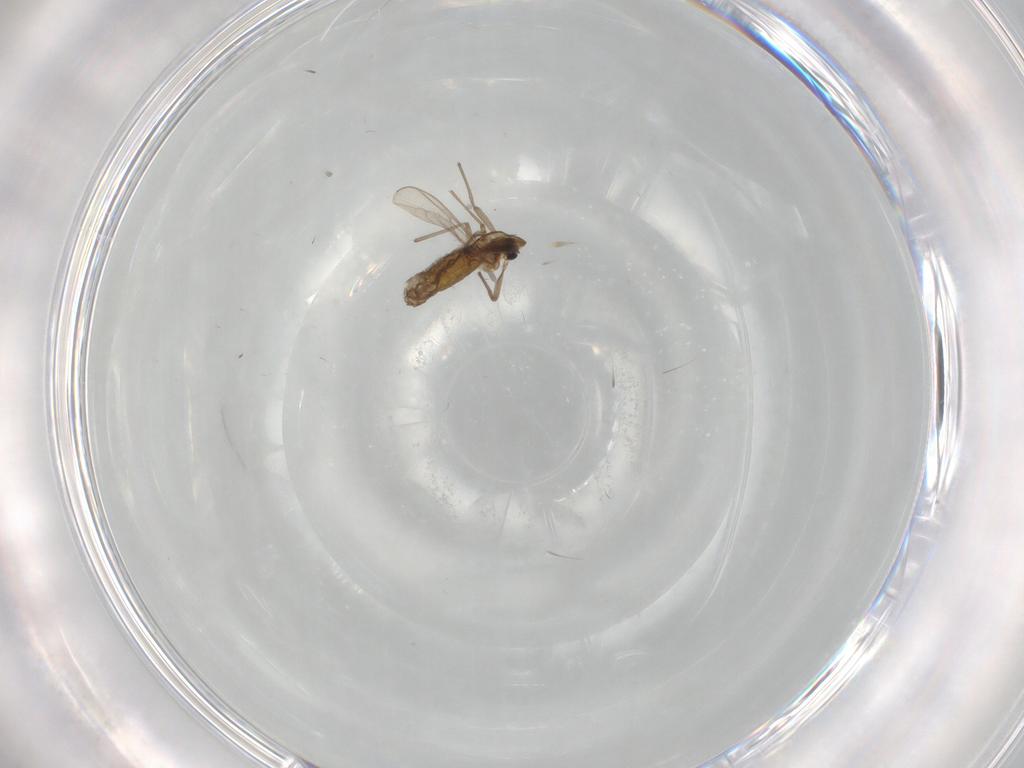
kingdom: Animalia
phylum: Arthropoda
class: Insecta
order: Diptera
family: Chironomidae
